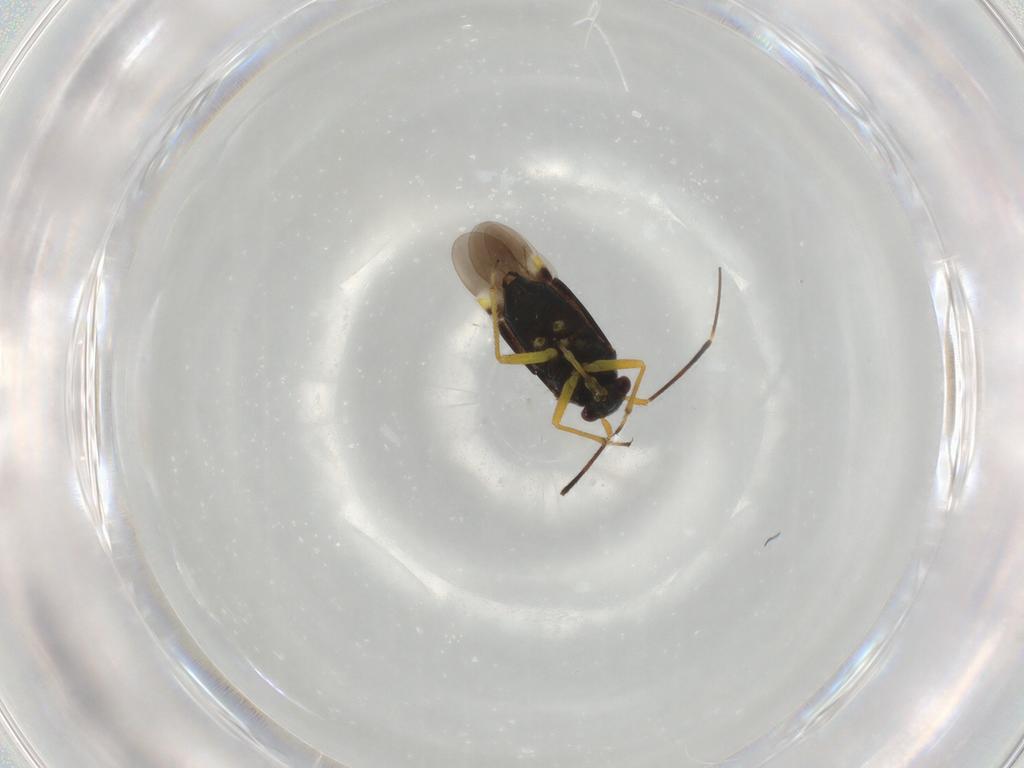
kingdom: Animalia
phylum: Arthropoda
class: Insecta
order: Hemiptera
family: Miridae
